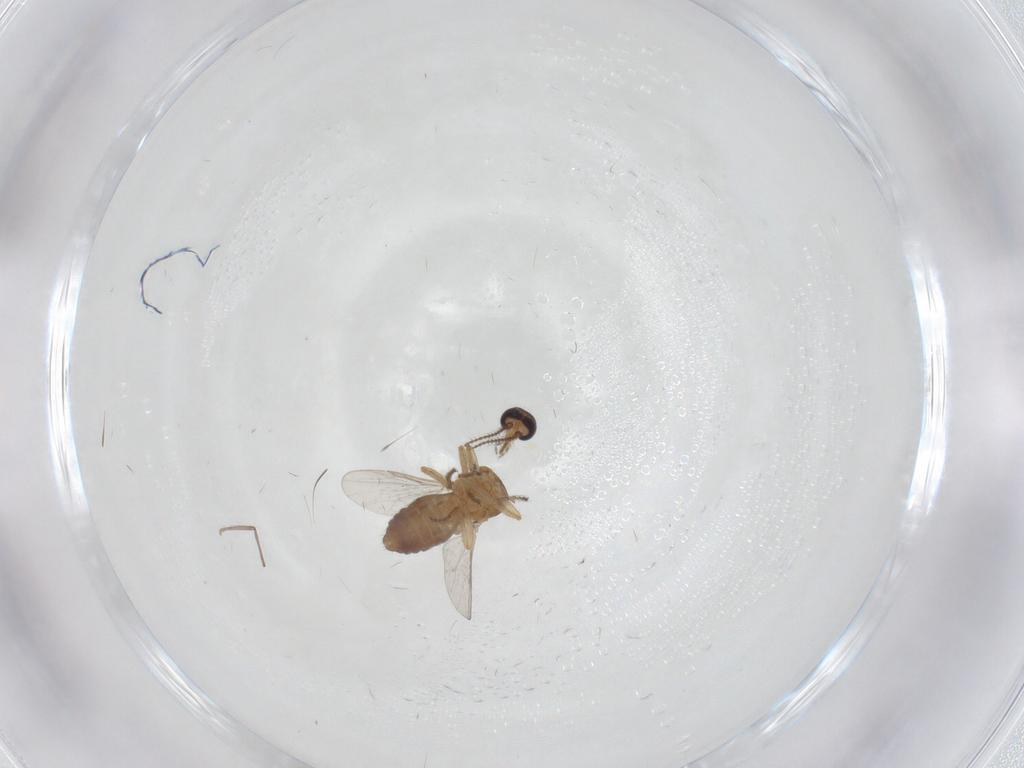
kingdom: Animalia
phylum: Arthropoda
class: Insecta
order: Diptera
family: Ceratopogonidae
